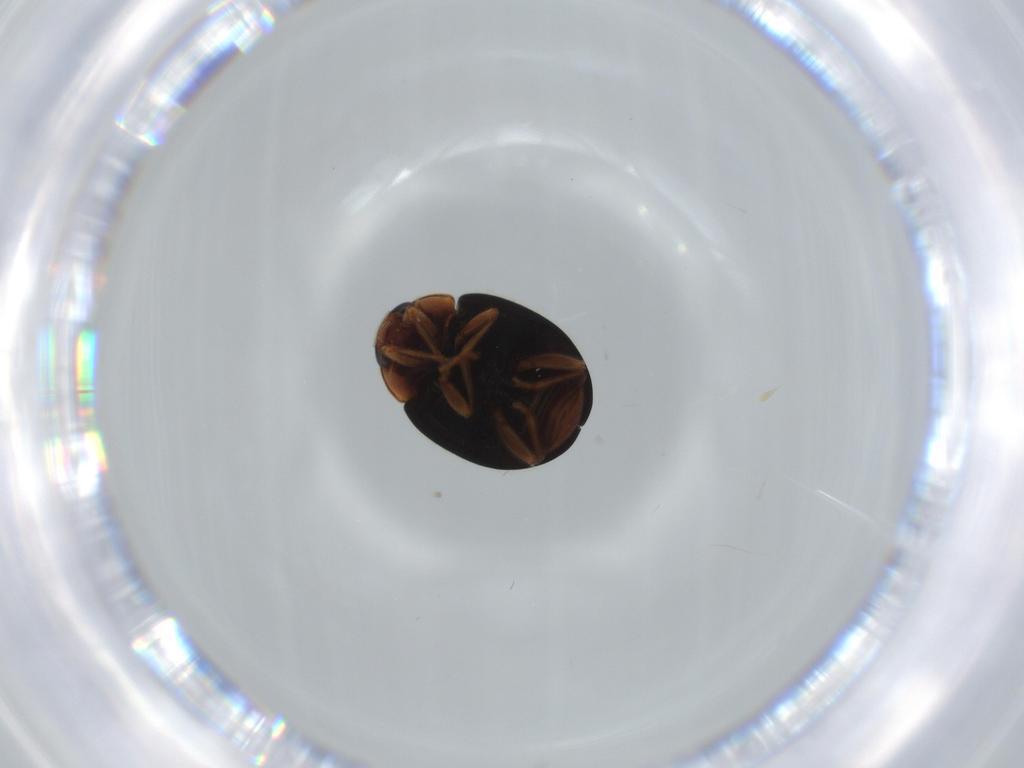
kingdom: Animalia
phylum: Arthropoda
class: Insecta
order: Coleoptera
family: Coccinellidae
